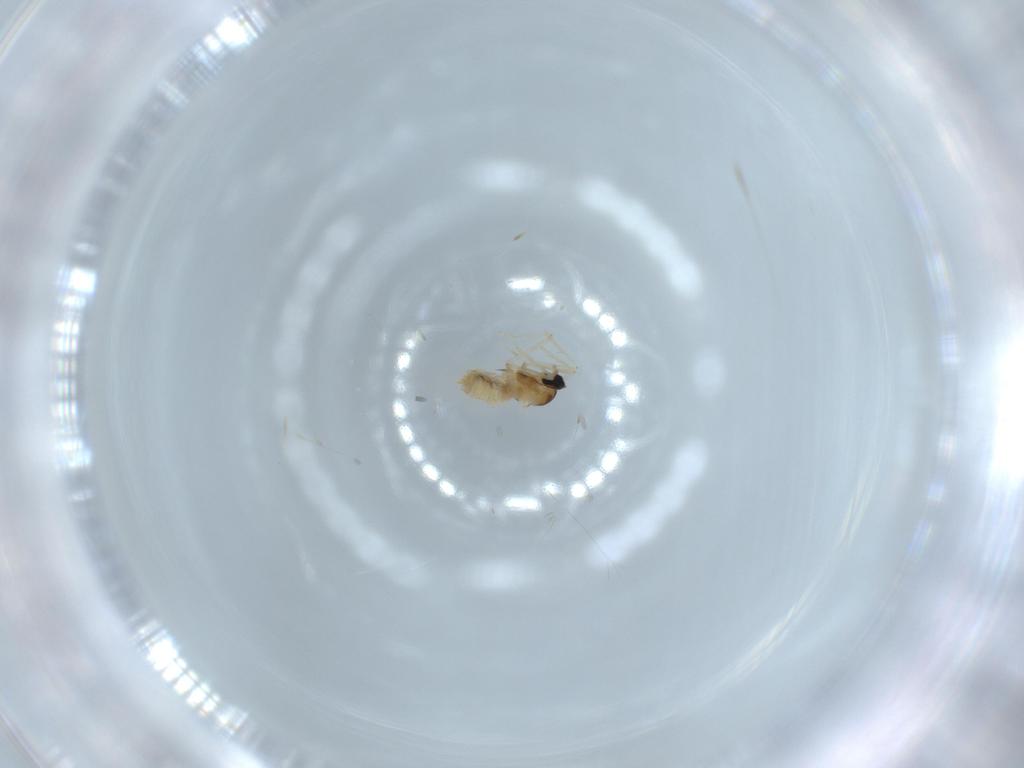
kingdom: Animalia
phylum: Arthropoda
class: Insecta
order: Diptera
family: Cecidomyiidae
